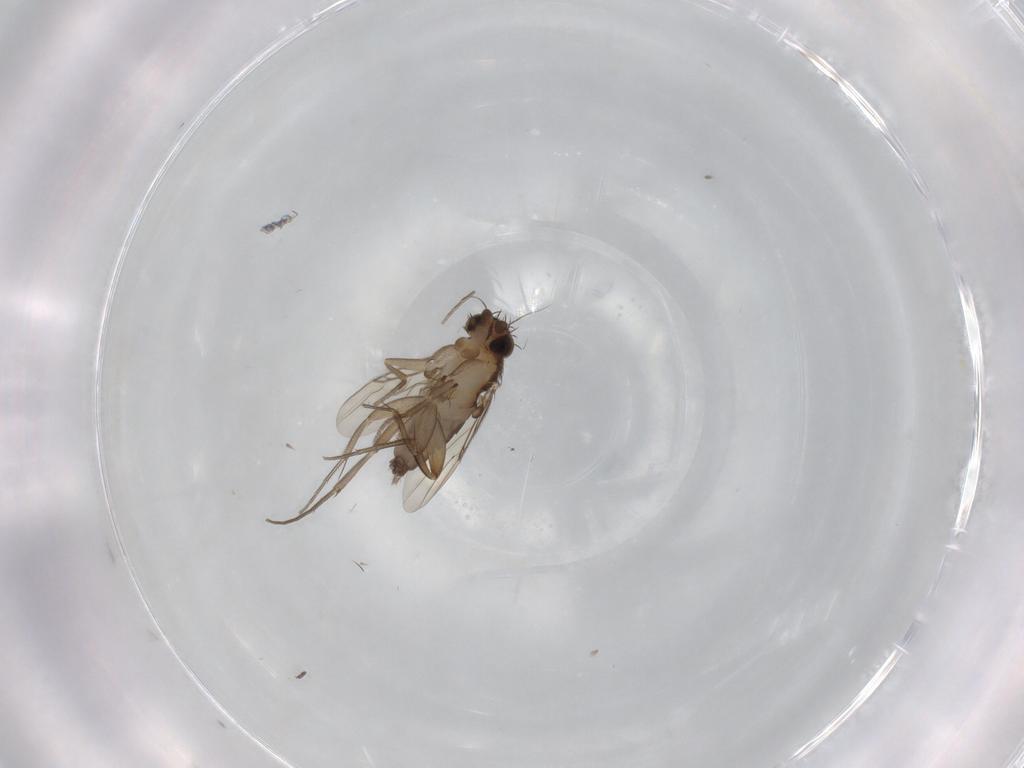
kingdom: Animalia
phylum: Arthropoda
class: Insecta
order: Diptera
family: Phoridae
